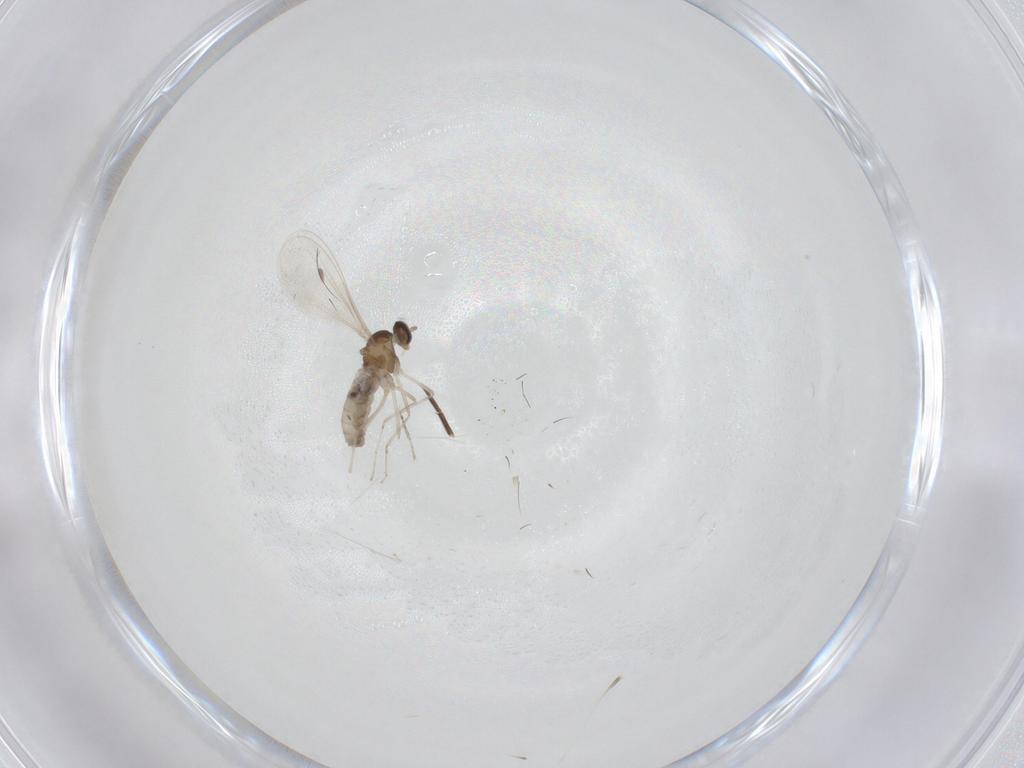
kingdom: Animalia
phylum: Arthropoda
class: Insecta
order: Diptera
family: Cecidomyiidae
